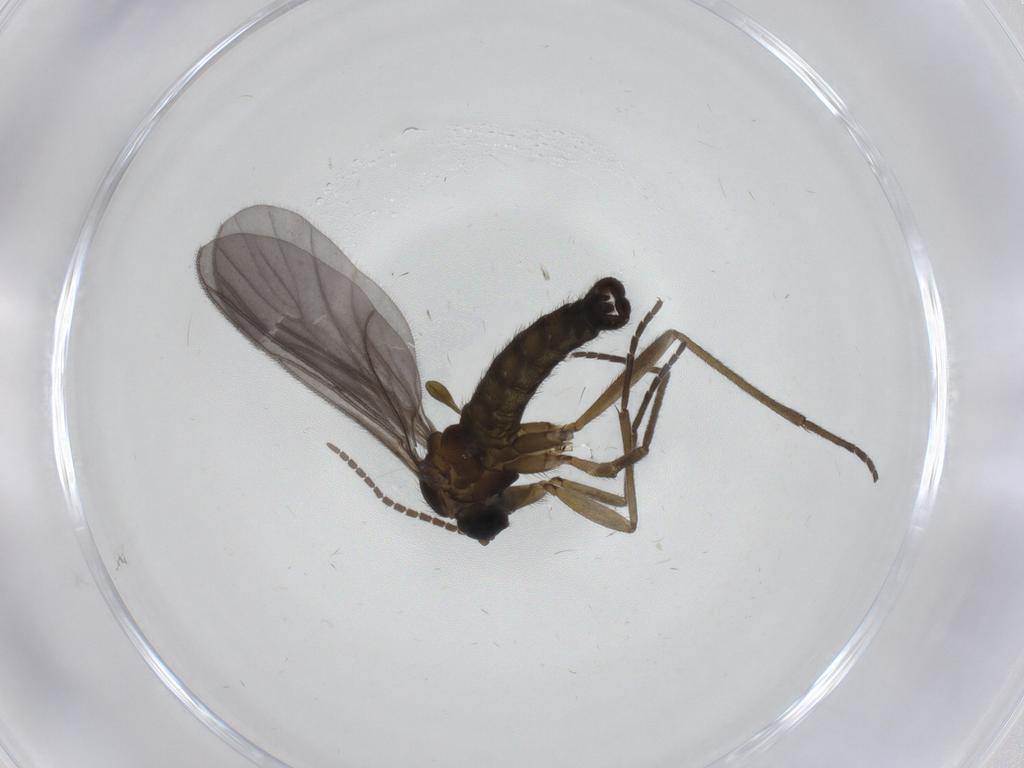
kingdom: Animalia
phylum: Arthropoda
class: Insecta
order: Diptera
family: Sciaridae
